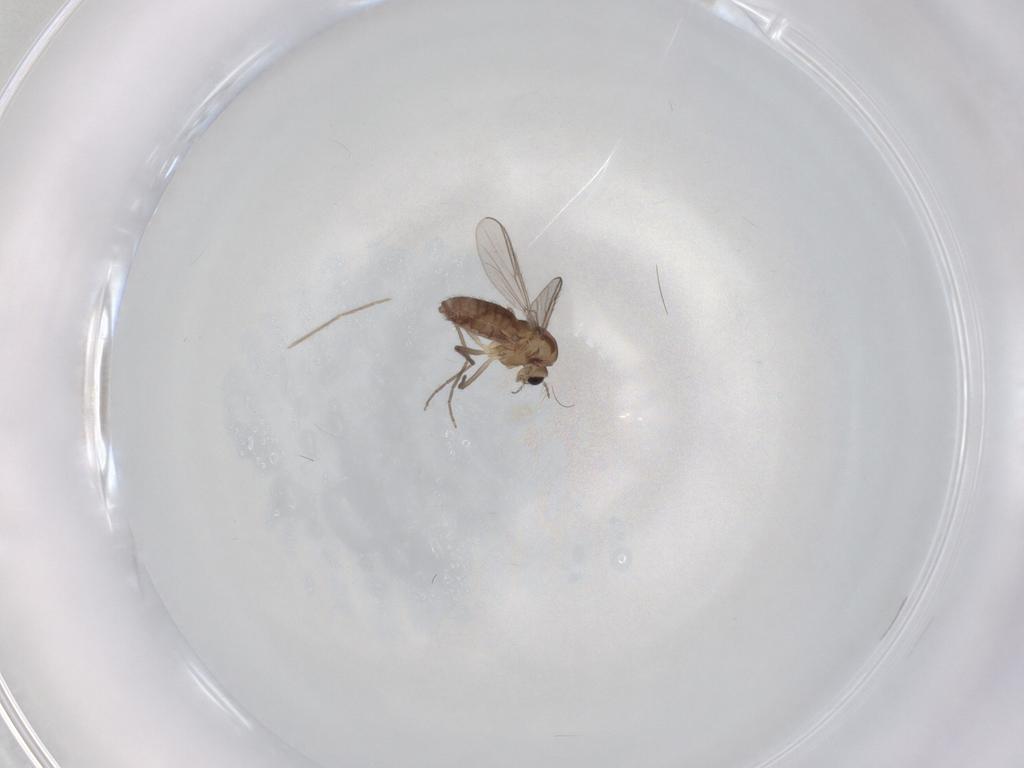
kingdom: Animalia
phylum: Arthropoda
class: Insecta
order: Diptera
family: Chironomidae
